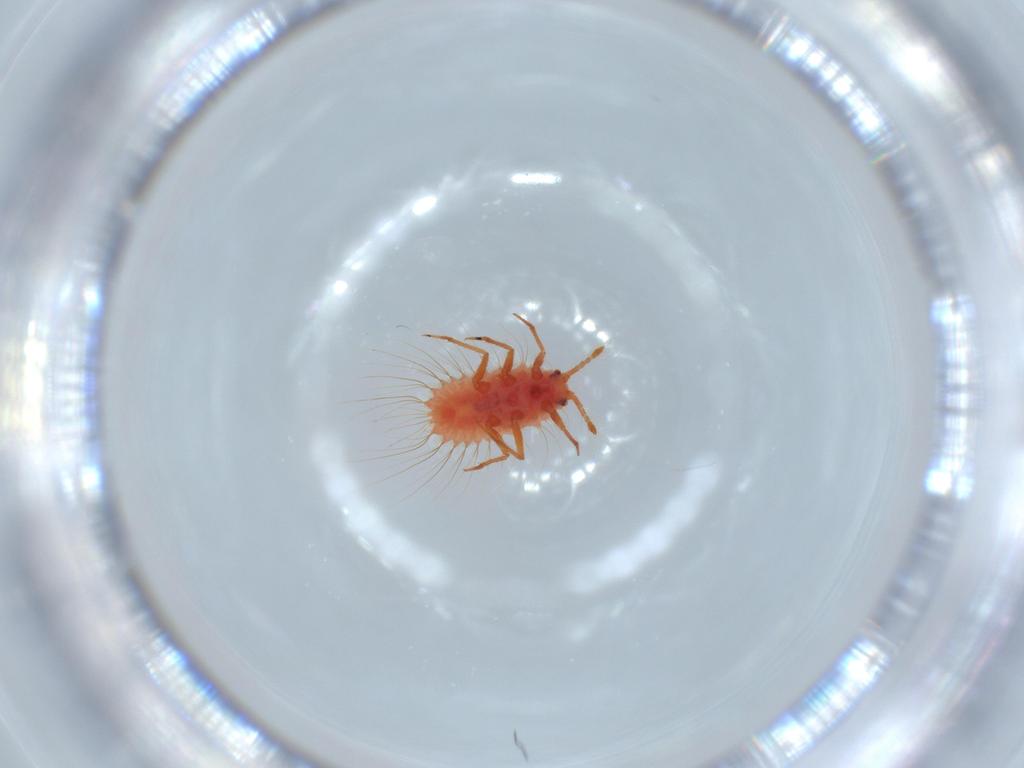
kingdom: Animalia
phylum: Arthropoda
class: Insecta
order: Hemiptera
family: Monophlebidae
